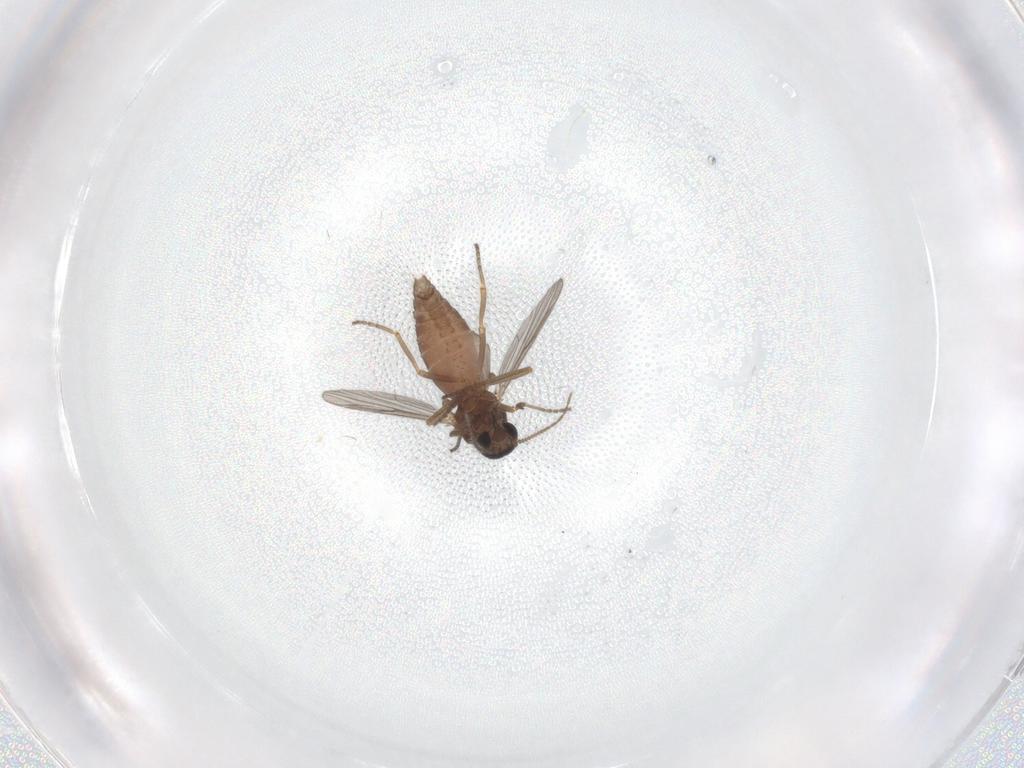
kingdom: Animalia
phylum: Arthropoda
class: Insecta
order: Diptera
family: Ceratopogonidae
